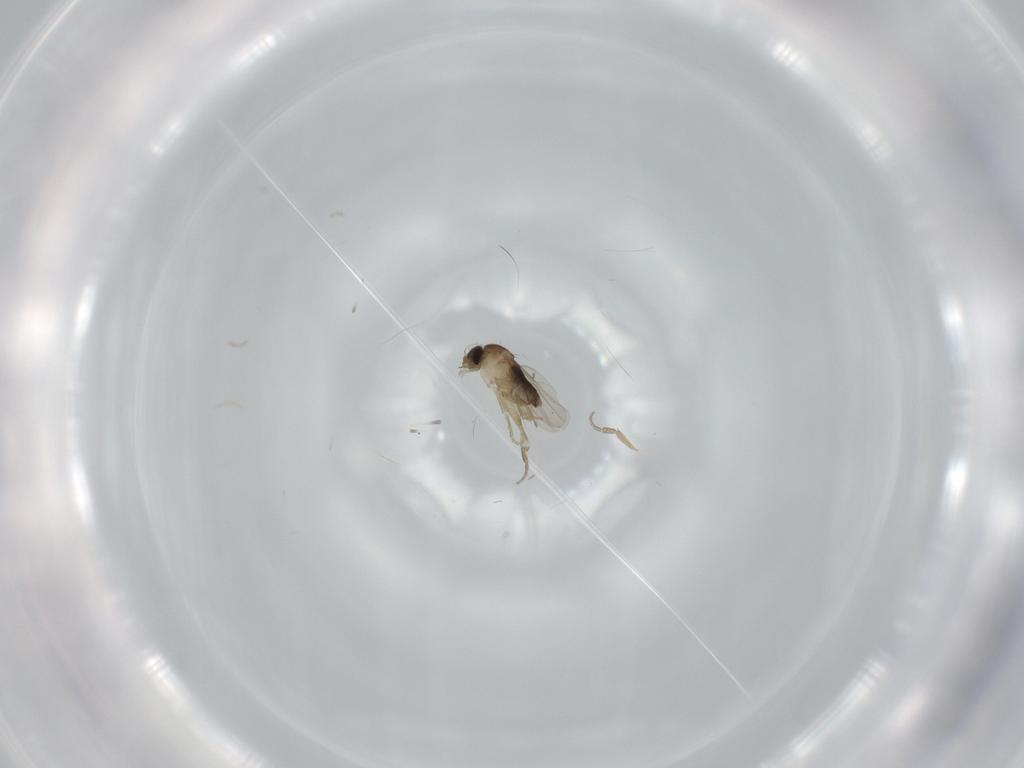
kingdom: Animalia
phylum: Arthropoda
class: Insecta
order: Diptera
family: Phoridae
